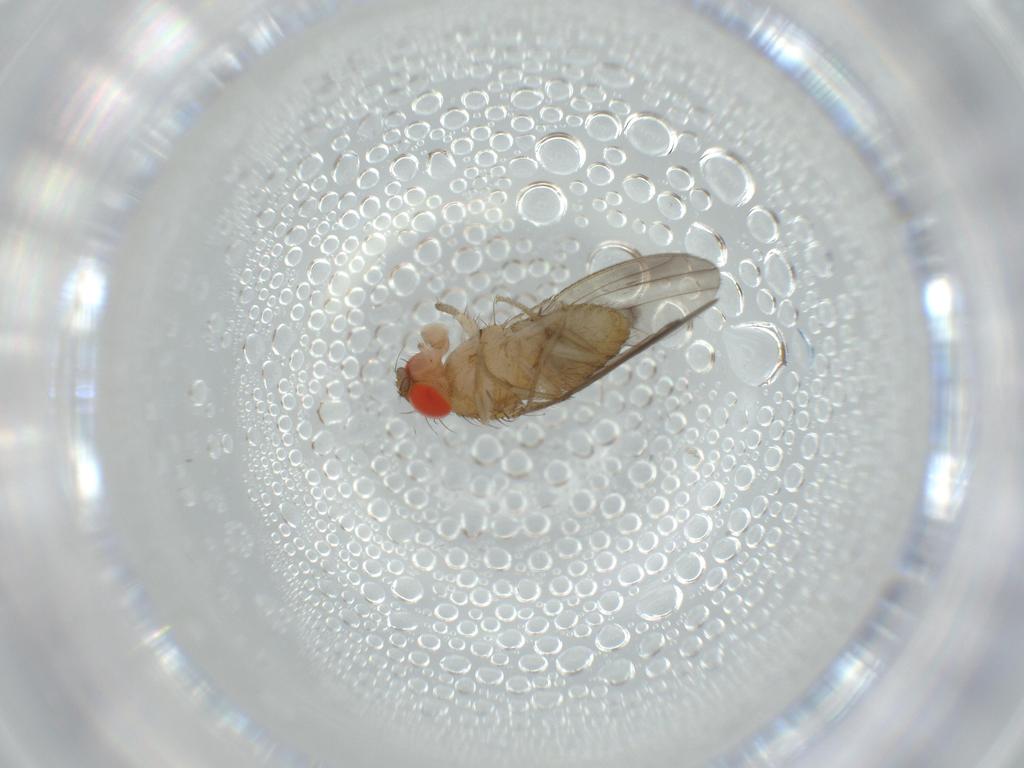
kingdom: Animalia
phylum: Arthropoda
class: Insecta
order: Diptera
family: Drosophilidae
